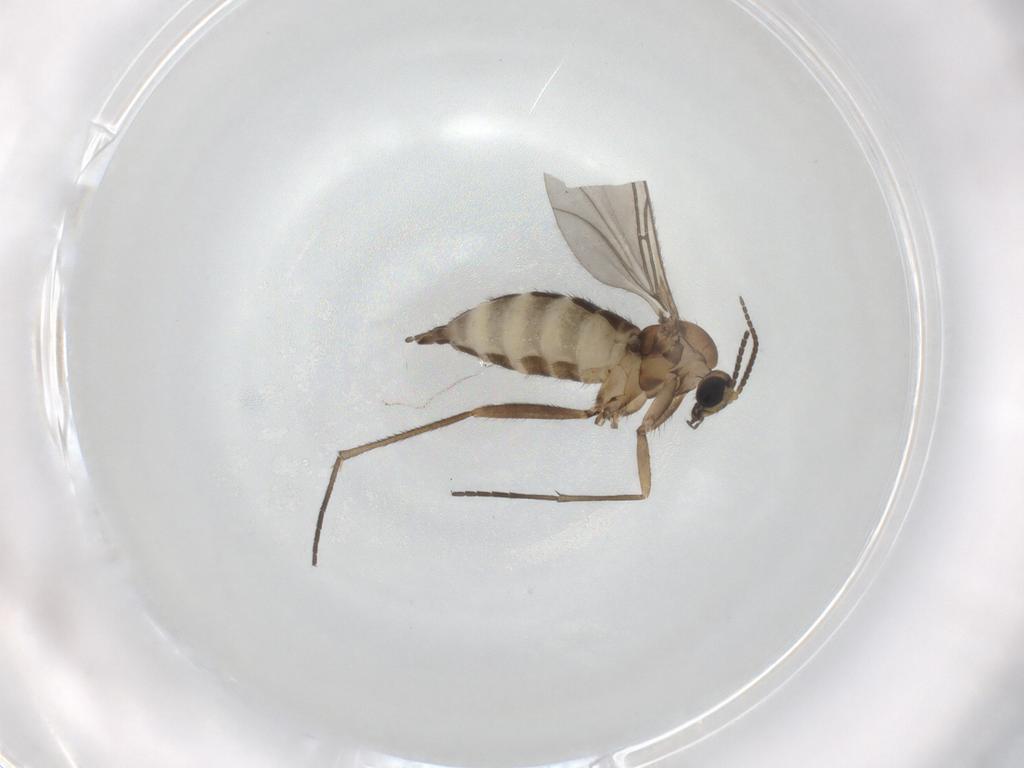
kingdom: Animalia
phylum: Arthropoda
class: Insecta
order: Diptera
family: Sciaridae
